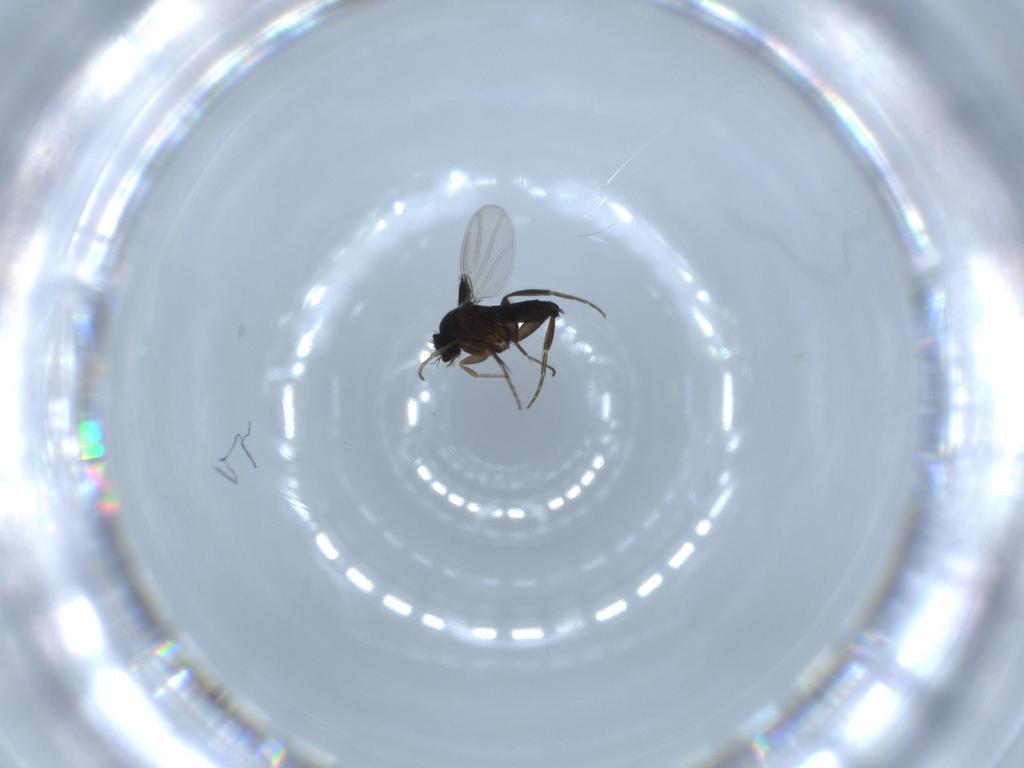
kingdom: Animalia
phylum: Arthropoda
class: Insecta
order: Diptera
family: Phoridae
